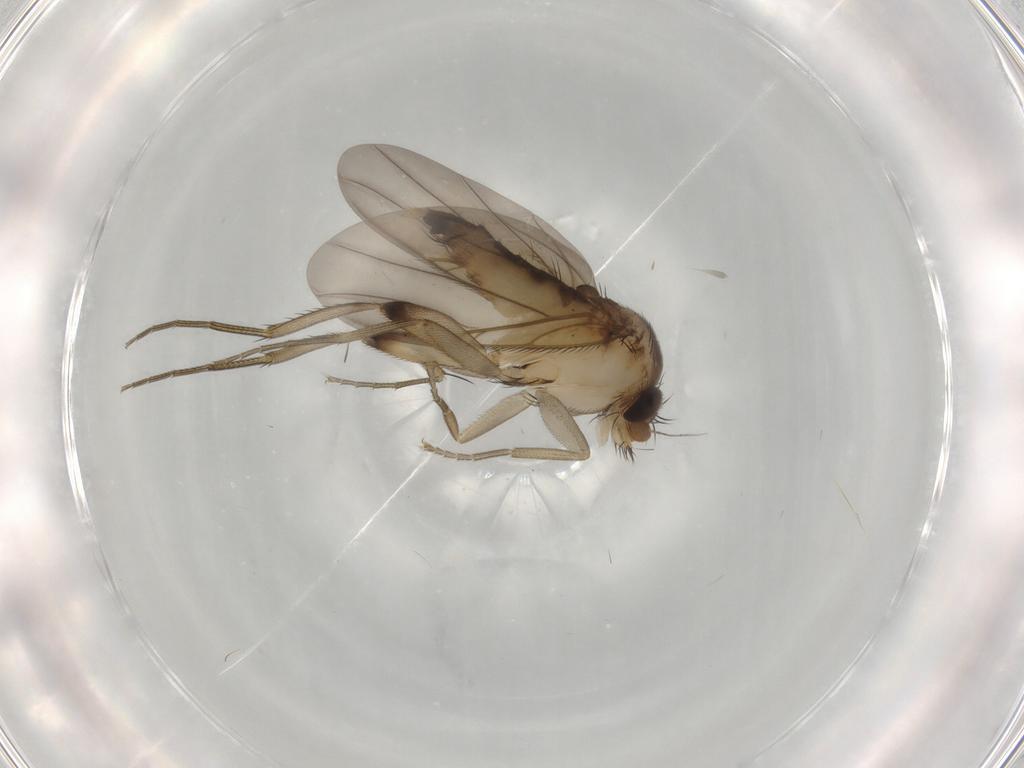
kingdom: Animalia
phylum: Arthropoda
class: Insecta
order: Diptera
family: Phoridae
